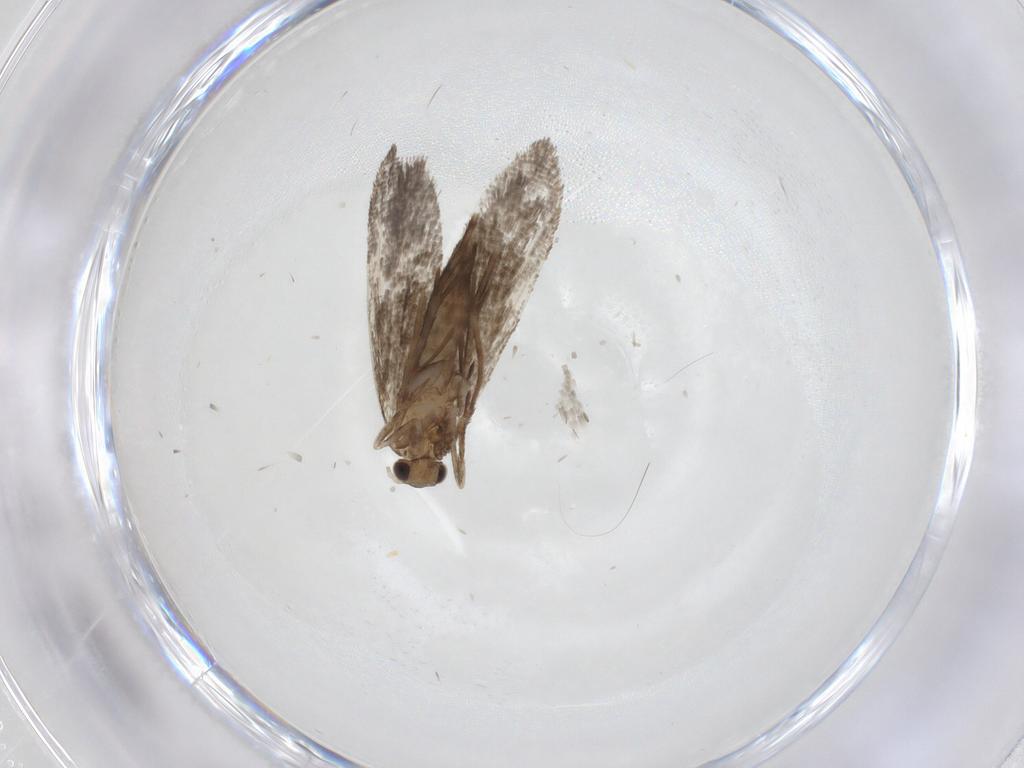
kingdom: Animalia
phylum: Arthropoda
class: Insecta
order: Lepidoptera
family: Crambidae
